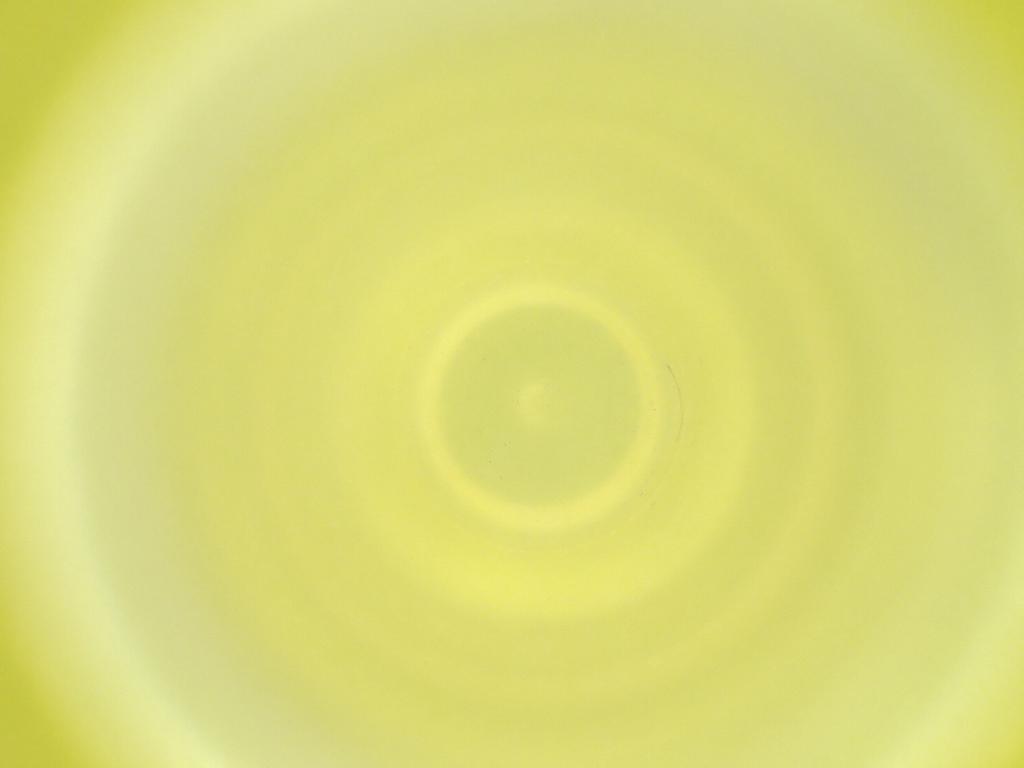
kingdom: Animalia
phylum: Arthropoda
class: Insecta
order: Diptera
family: Cecidomyiidae
